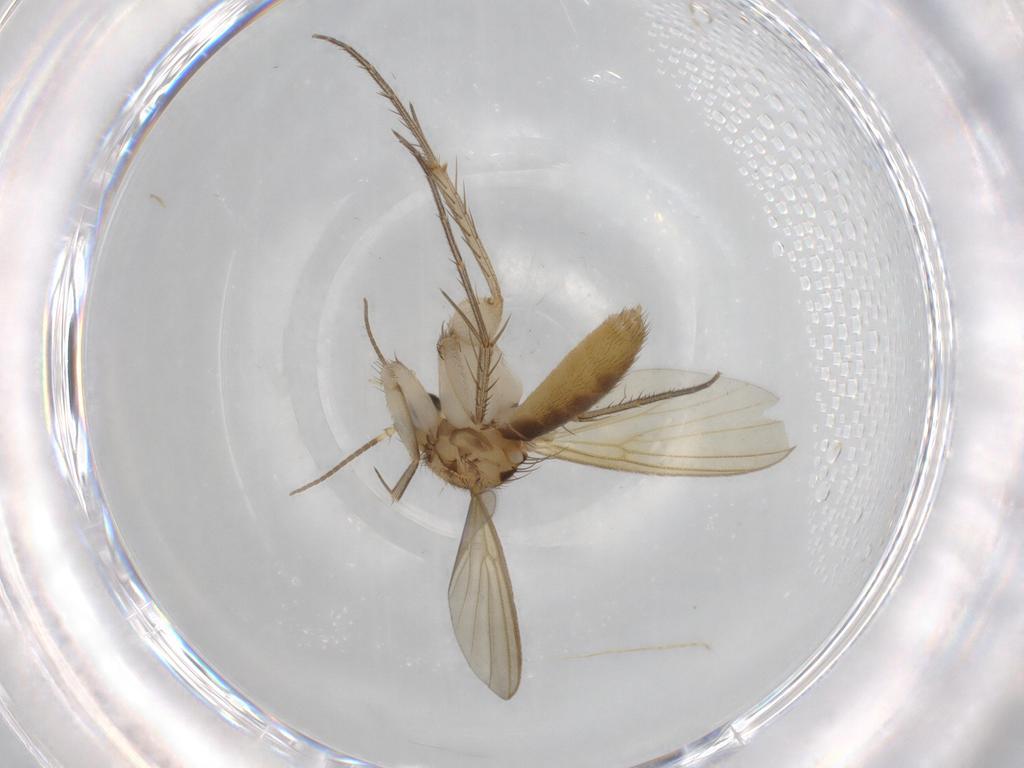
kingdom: Animalia
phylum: Arthropoda
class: Insecta
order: Diptera
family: Mycetophilidae
